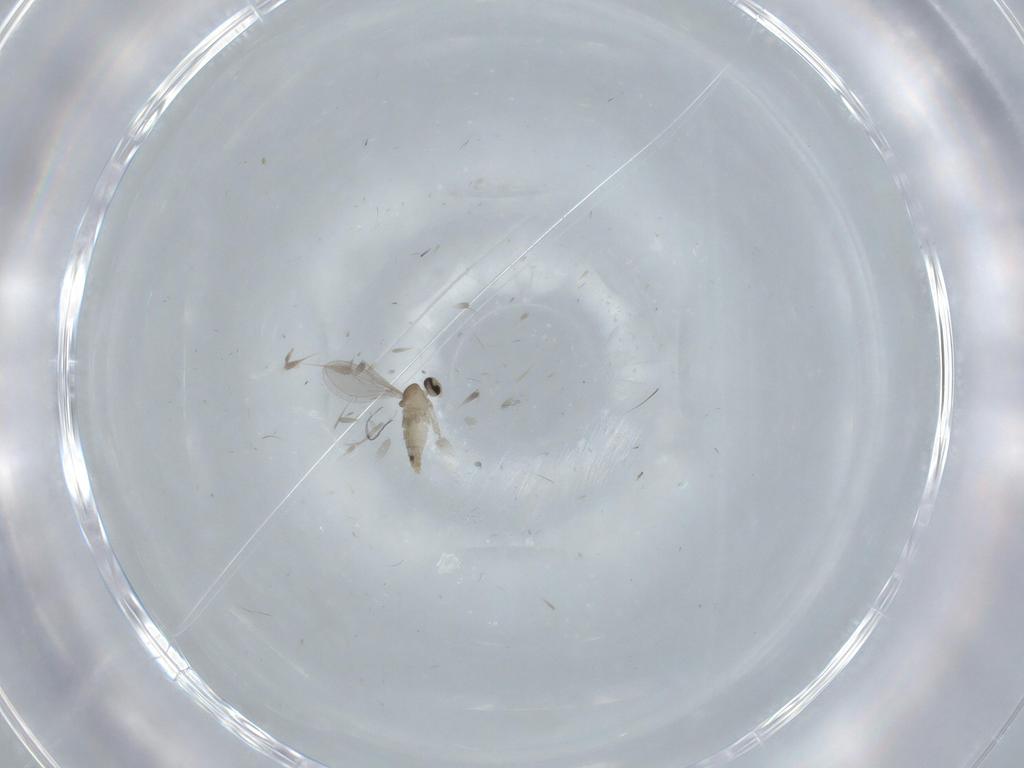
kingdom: Animalia
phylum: Arthropoda
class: Insecta
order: Diptera
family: Cecidomyiidae
